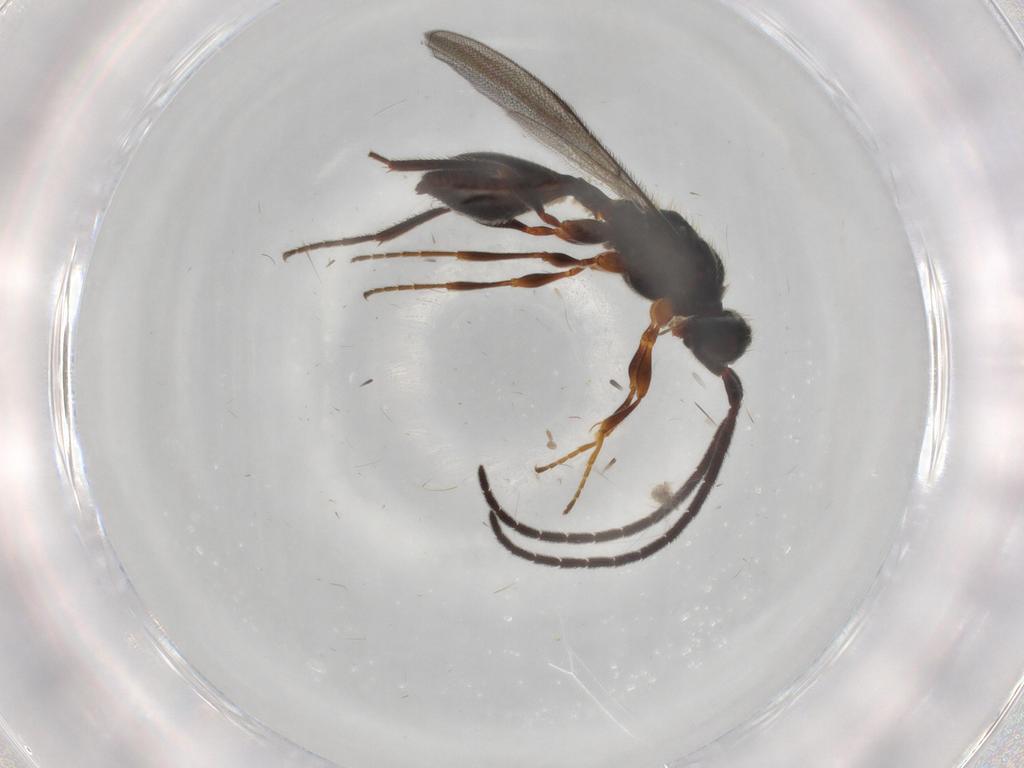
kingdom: Animalia
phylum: Arthropoda
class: Insecta
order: Hymenoptera
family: Diapriidae
